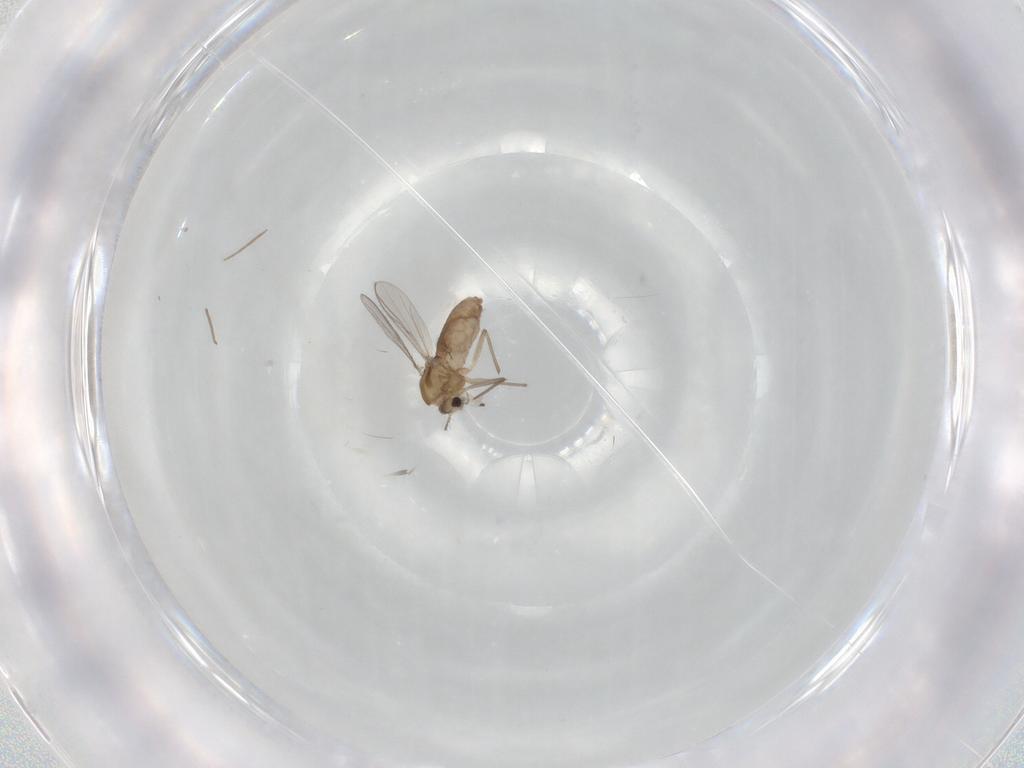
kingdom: Animalia
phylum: Arthropoda
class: Insecta
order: Diptera
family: Chironomidae
